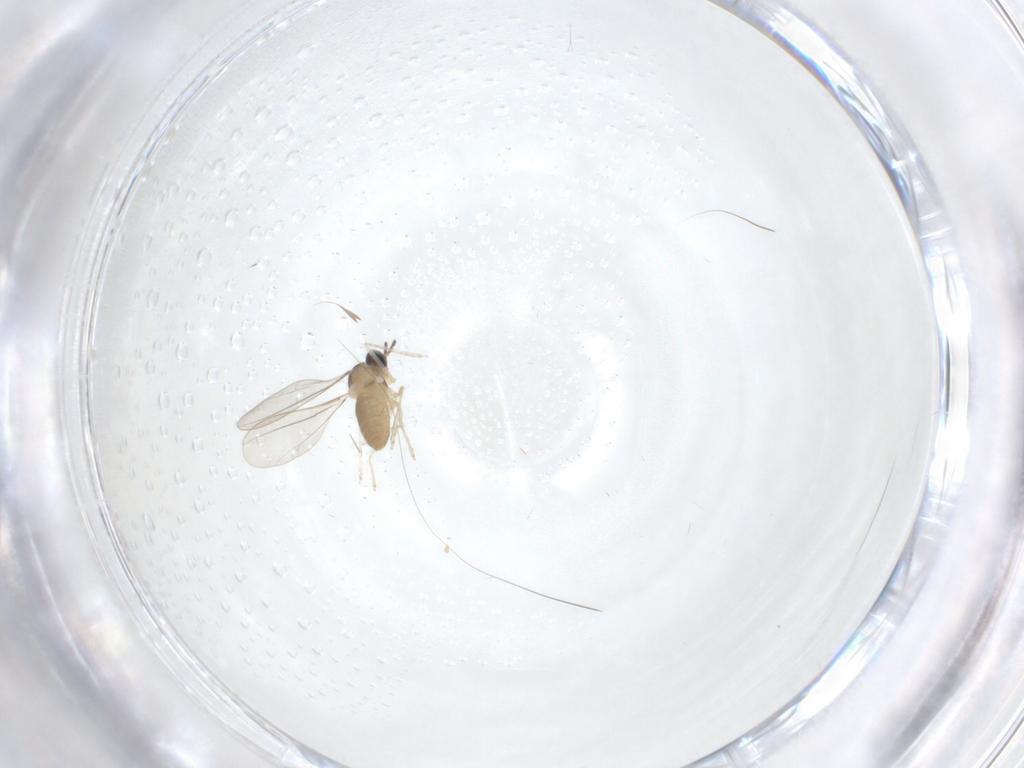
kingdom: Animalia
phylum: Arthropoda
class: Insecta
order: Diptera
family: Cecidomyiidae
